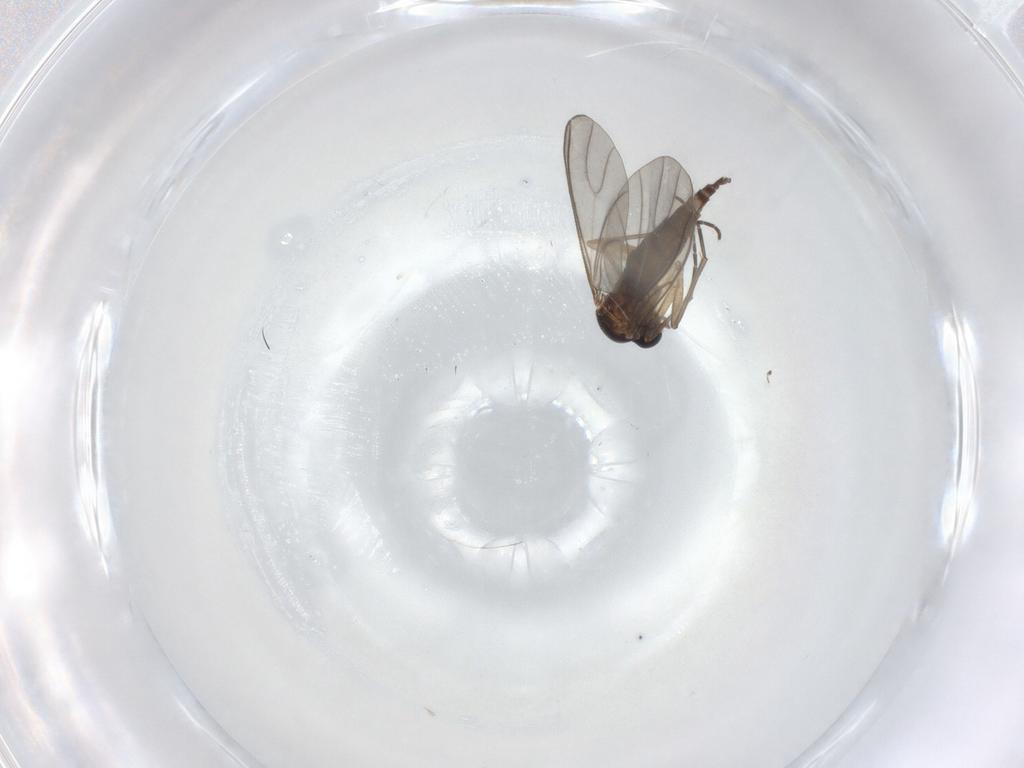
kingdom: Animalia
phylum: Arthropoda
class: Insecta
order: Diptera
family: Sciaridae
